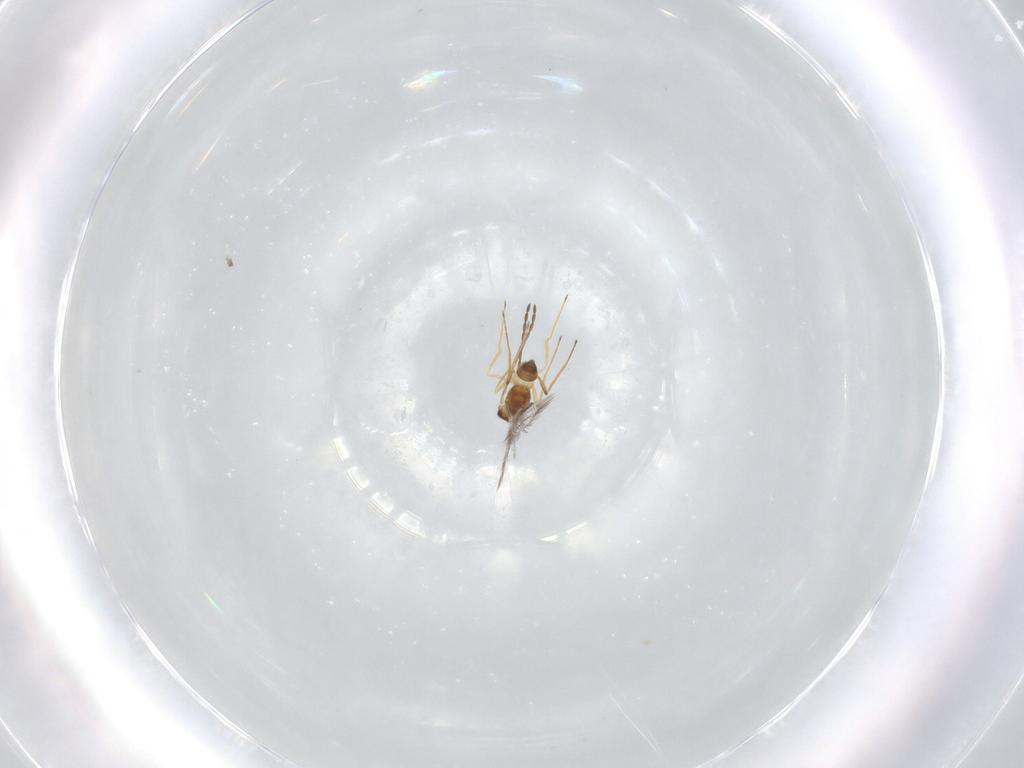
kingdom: Animalia
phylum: Arthropoda
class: Insecta
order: Hymenoptera
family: Mymaridae
